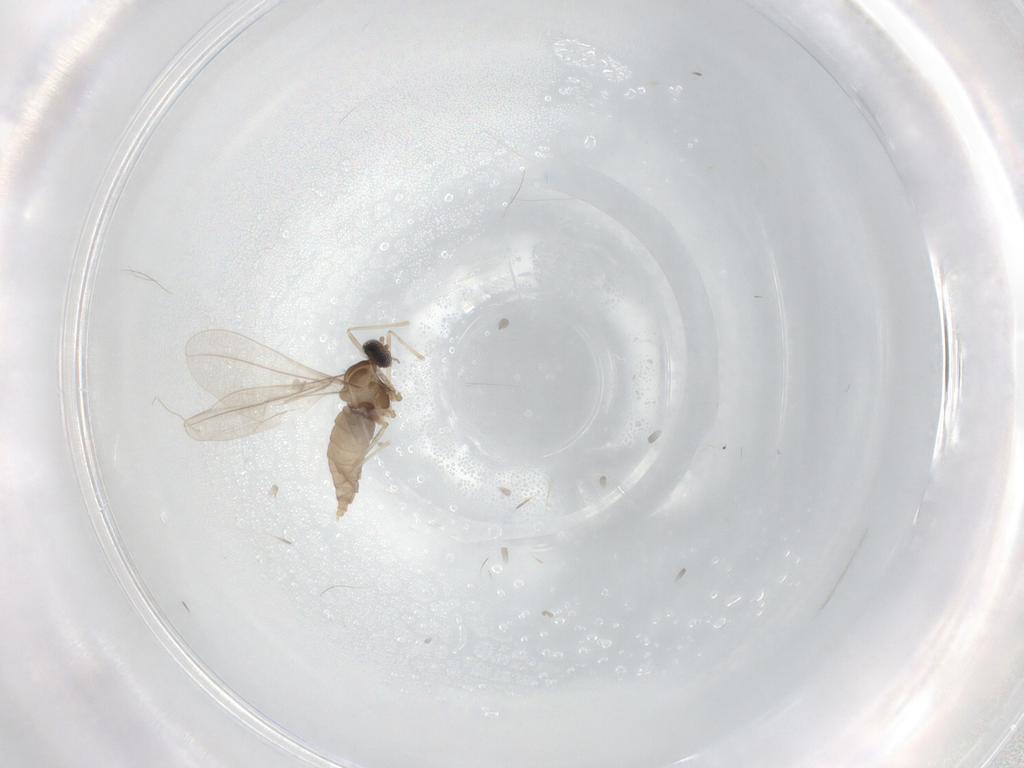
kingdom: Animalia
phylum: Arthropoda
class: Insecta
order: Diptera
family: Cecidomyiidae
